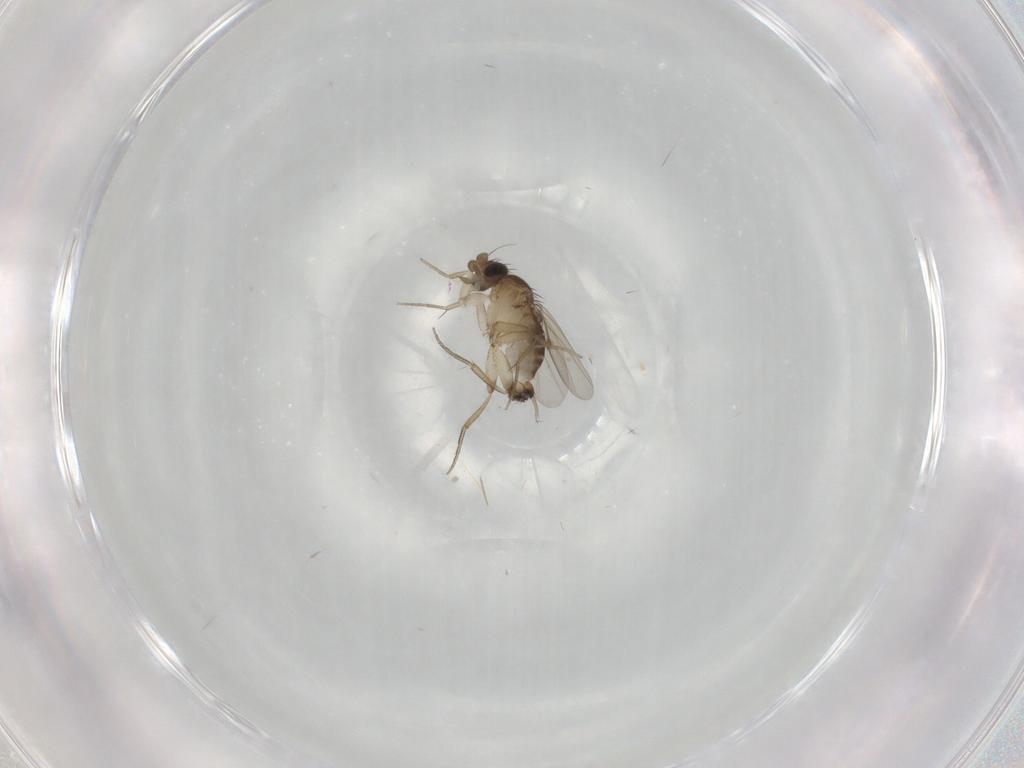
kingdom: Animalia
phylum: Arthropoda
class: Insecta
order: Diptera
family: Phoridae
